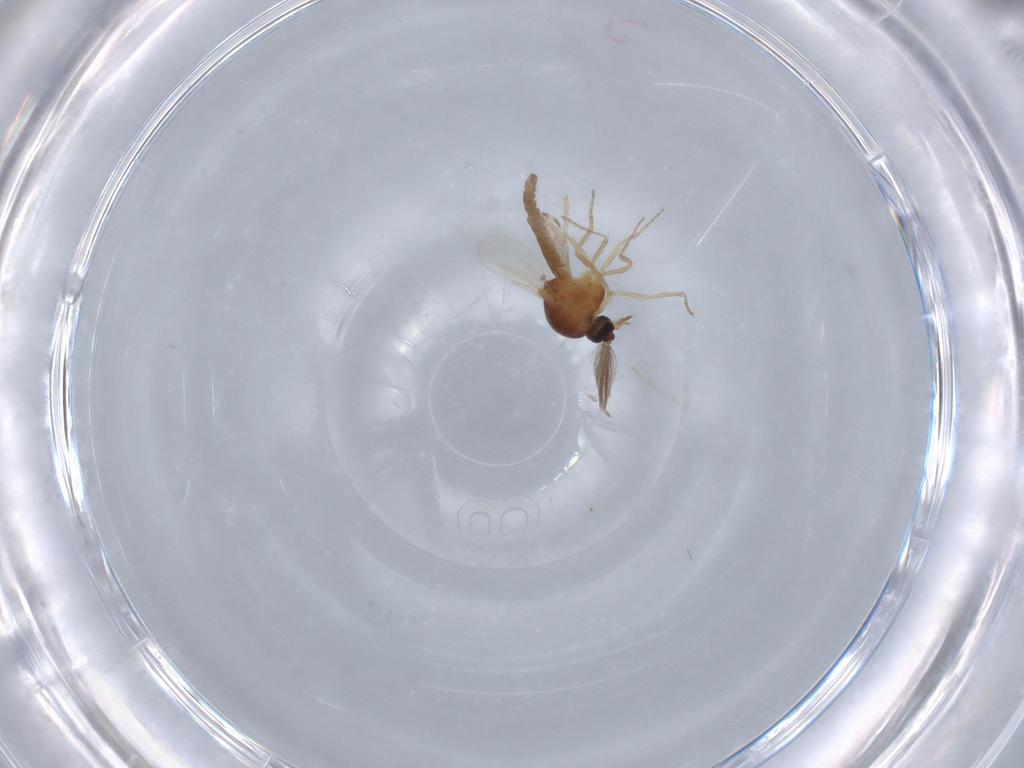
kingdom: Animalia
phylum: Arthropoda
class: Insecta
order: Diptera
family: Ceratopogonidae
